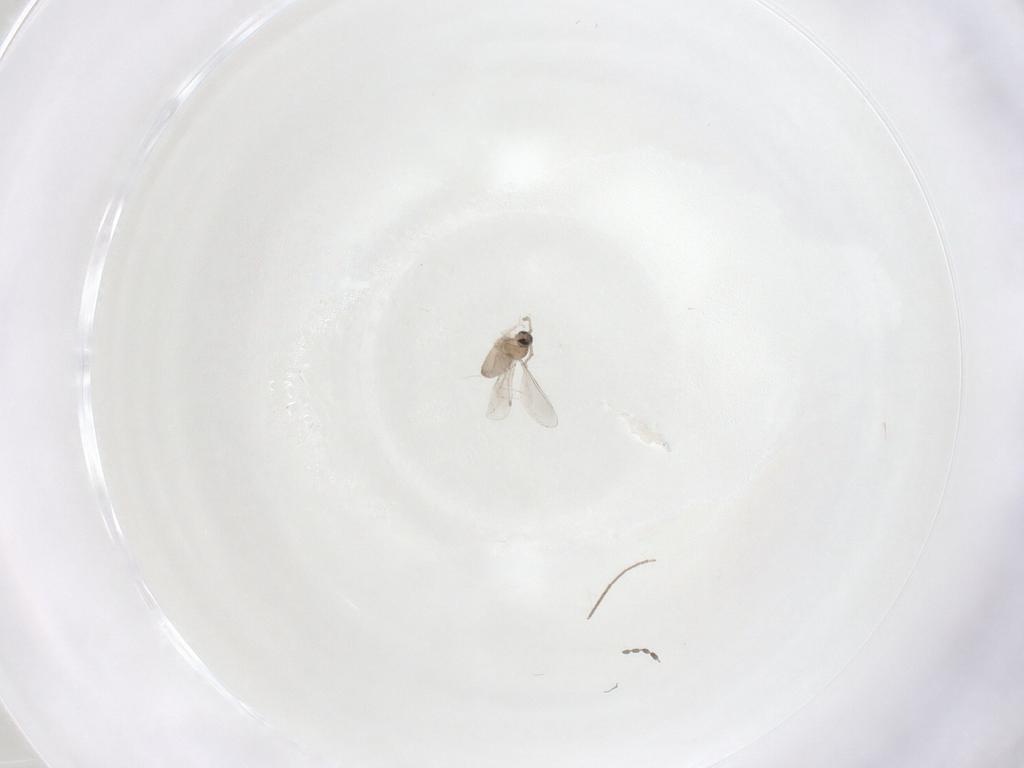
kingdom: Animalia
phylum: Arthropoda
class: Insecta
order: Diptera
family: Cecidomyiidae
